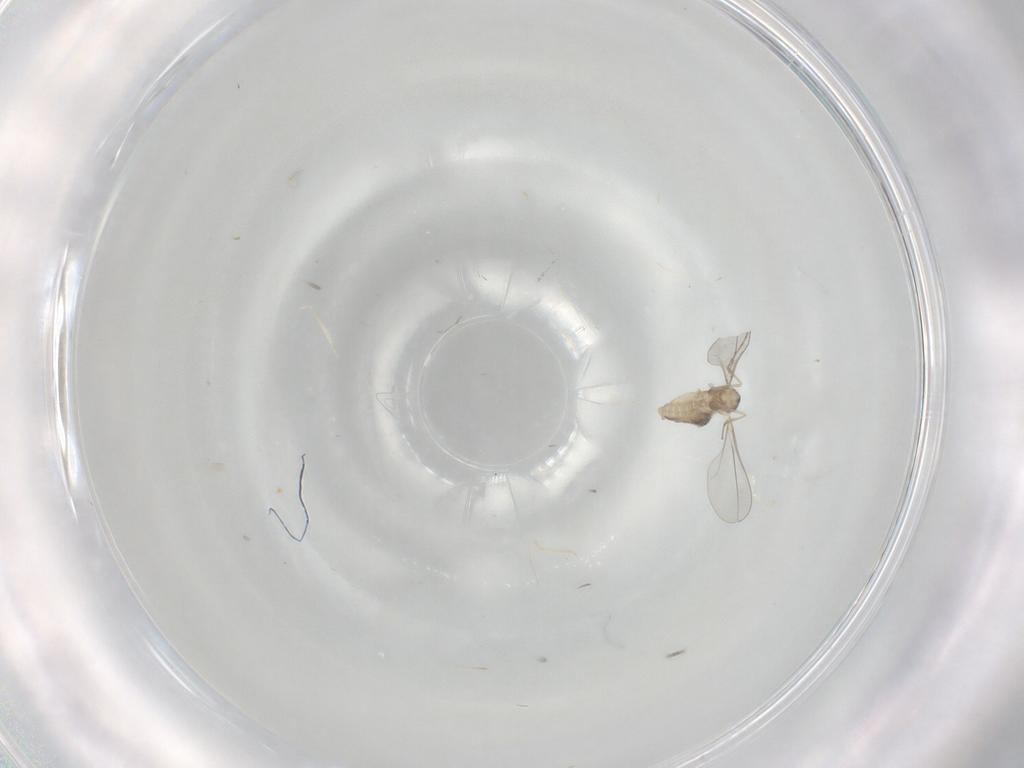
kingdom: Animalia
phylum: Arthropoda
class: Insecta
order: Diptera
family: Cecidomyiidae
